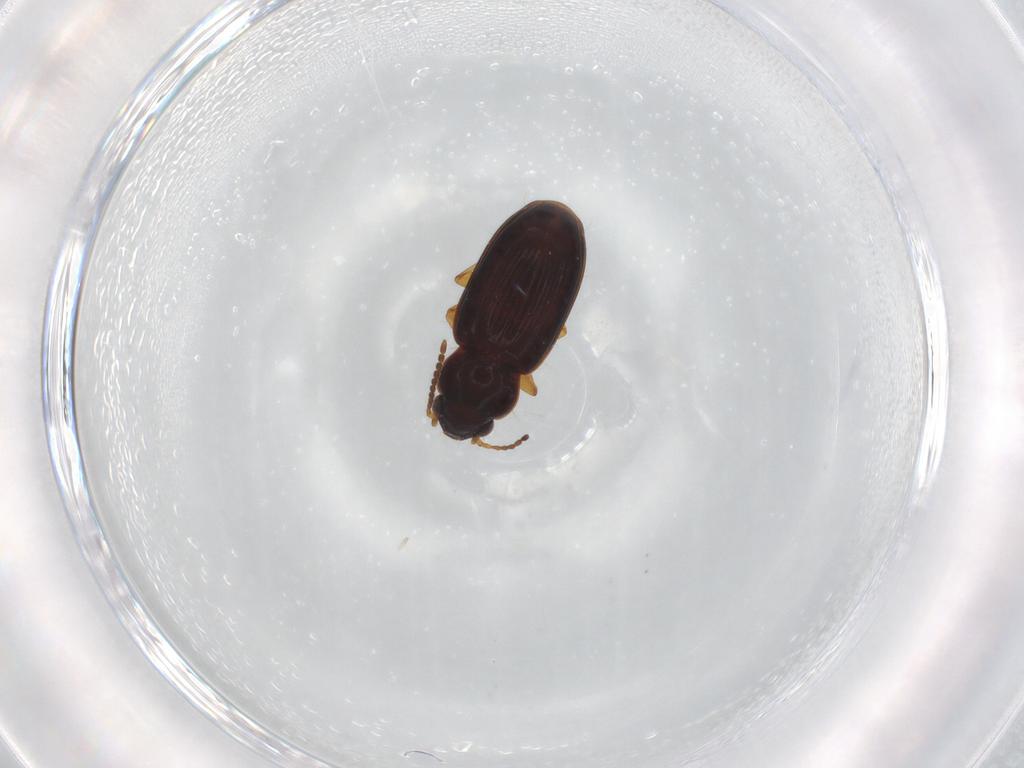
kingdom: Animalia
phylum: Arthropoda
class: Insecta
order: Coleoptera
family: Carabidae
